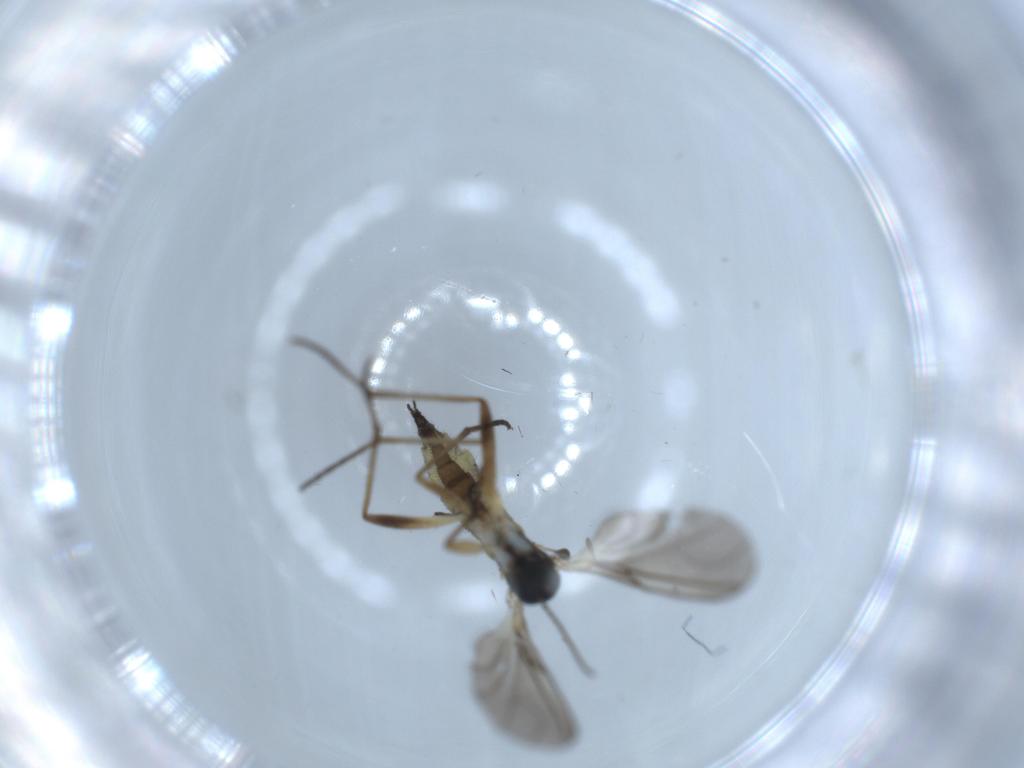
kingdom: Animalia
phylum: Arthropoda
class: Insecta
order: Diptera
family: Sciaridae
